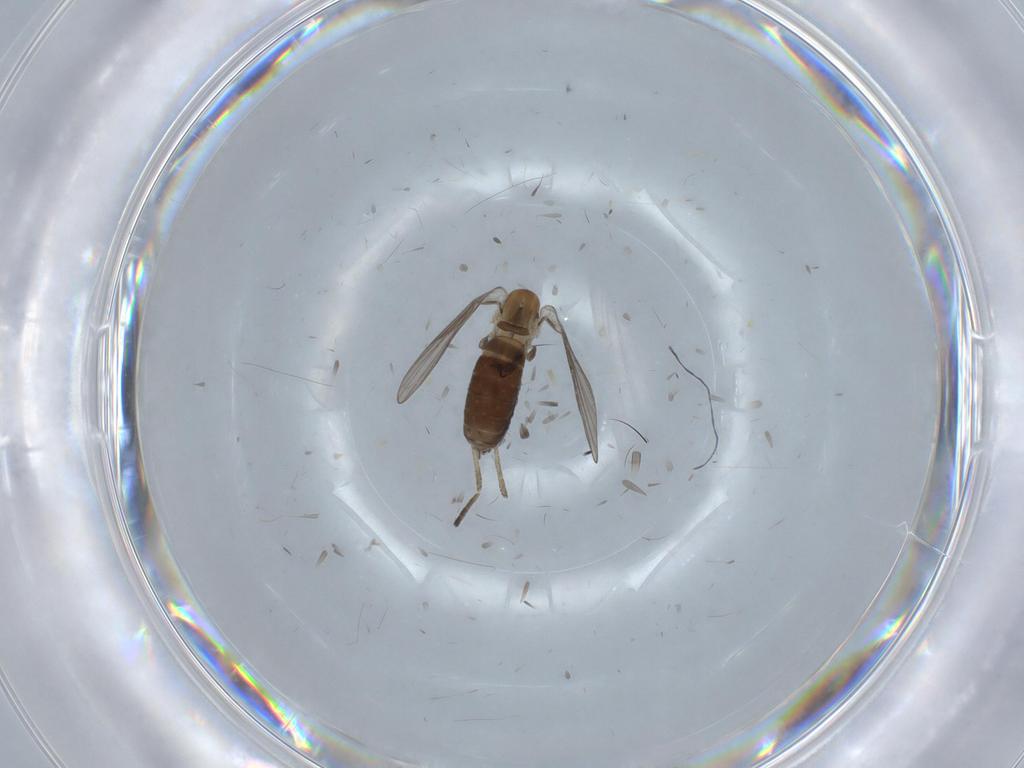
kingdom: Animalia
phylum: Arthropoda
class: Insecta
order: Diptera
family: Psychodidae
